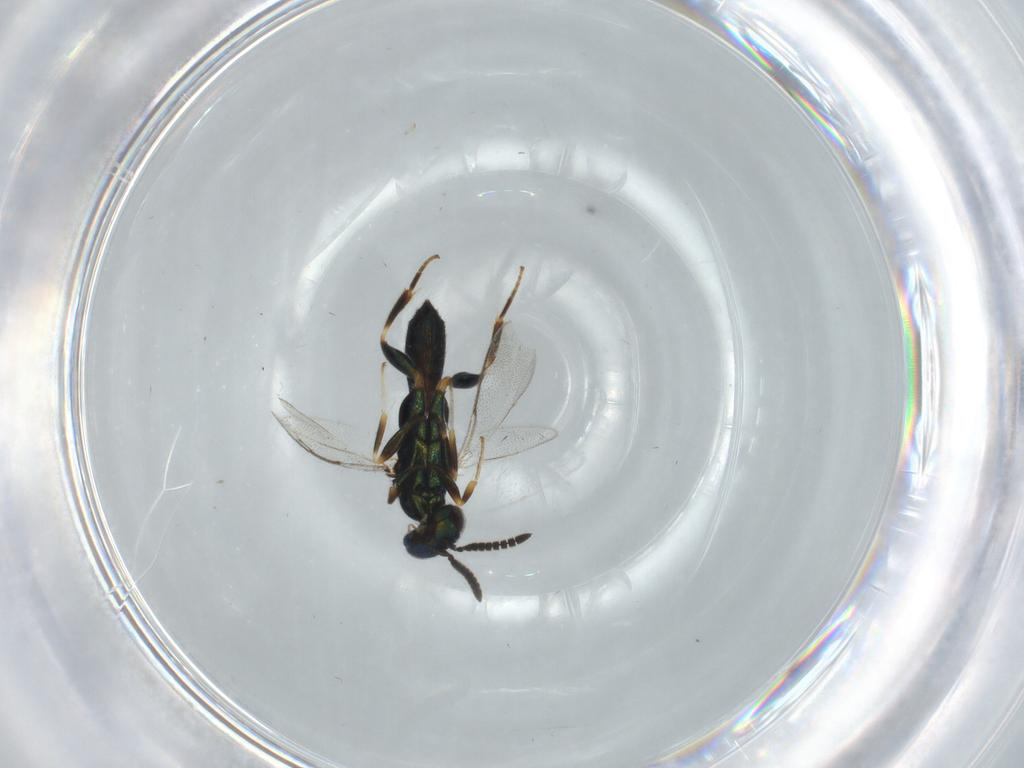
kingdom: Animalia
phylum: Arthropoda
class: Insecta
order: Hymenoptera
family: Cleonyminae
